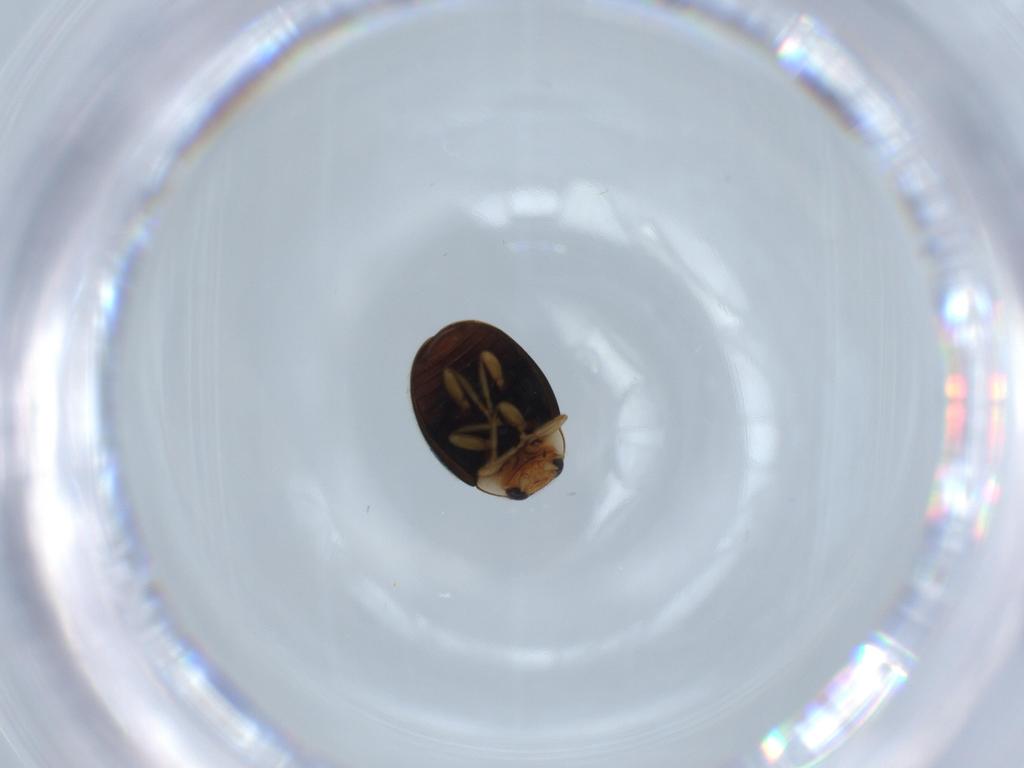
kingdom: Animalia
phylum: Arthropoda
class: Insecta
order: Coleoptera
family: Coccinellidae
